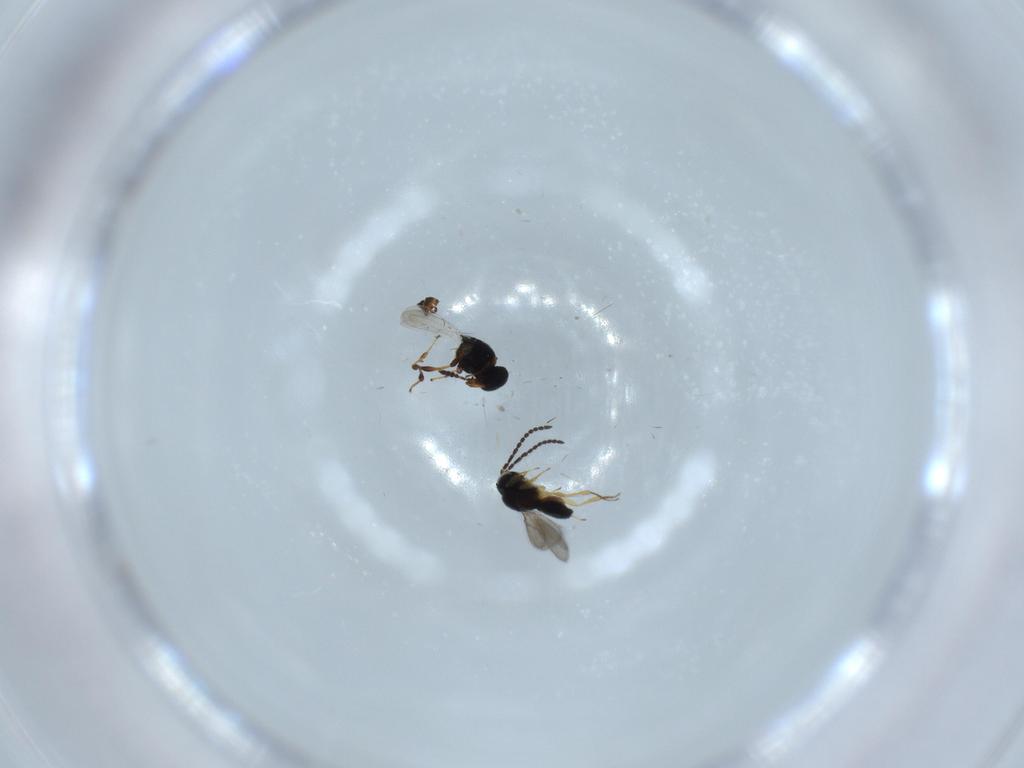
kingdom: Animalia
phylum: Arthropoda
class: Insecta
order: Hymenoptera
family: Scelionidae
